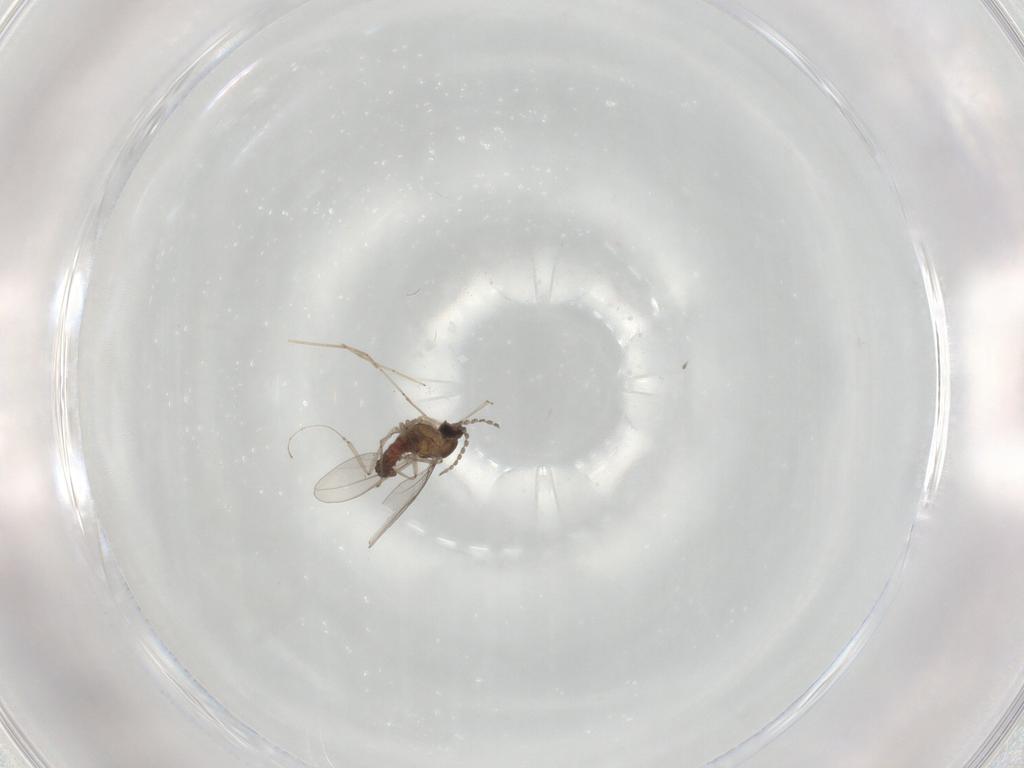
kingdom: Animalia
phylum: Arthropoda
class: Insecta
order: Diptera
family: Cecidomyiidae
